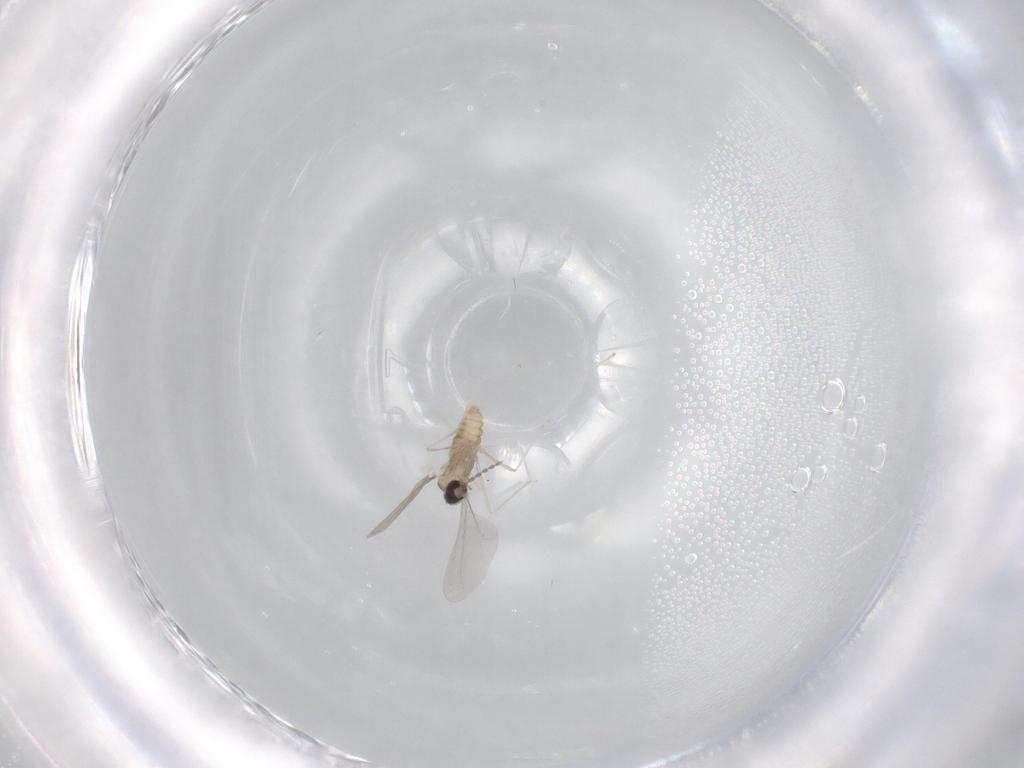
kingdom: Animalia
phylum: Arthropoda
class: Insecta
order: Diptera
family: Cecidomyiidae
